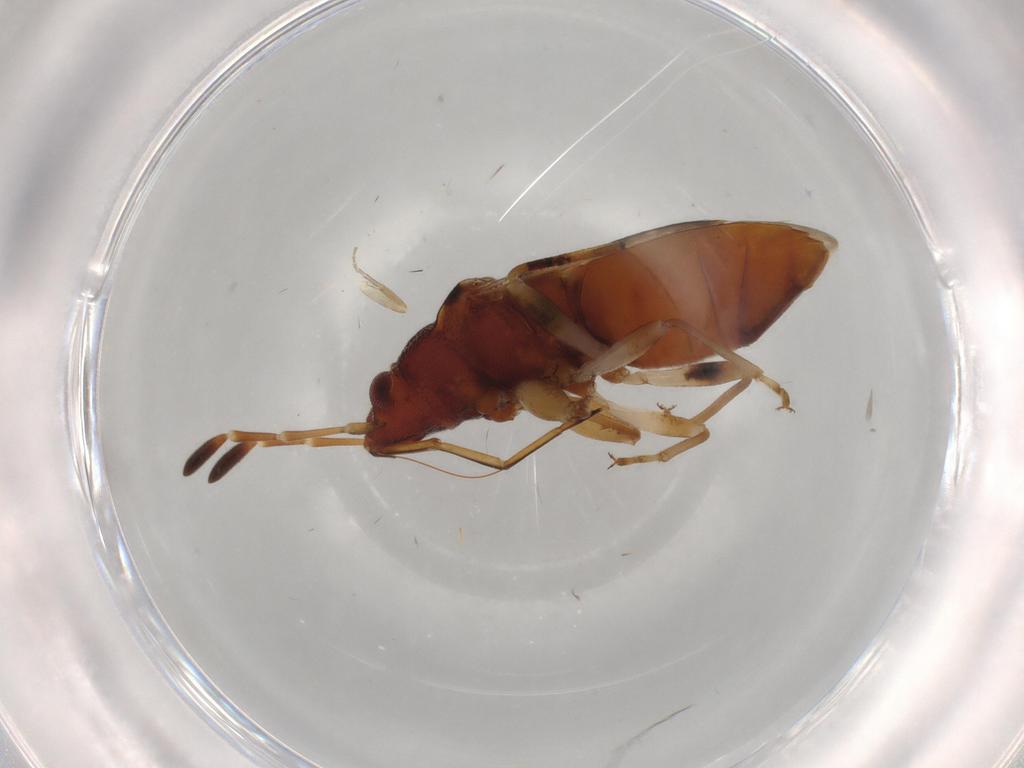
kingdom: Animalia
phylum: Arthropoda
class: Insecta
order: Hemiptera
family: Rhyparochromidae
